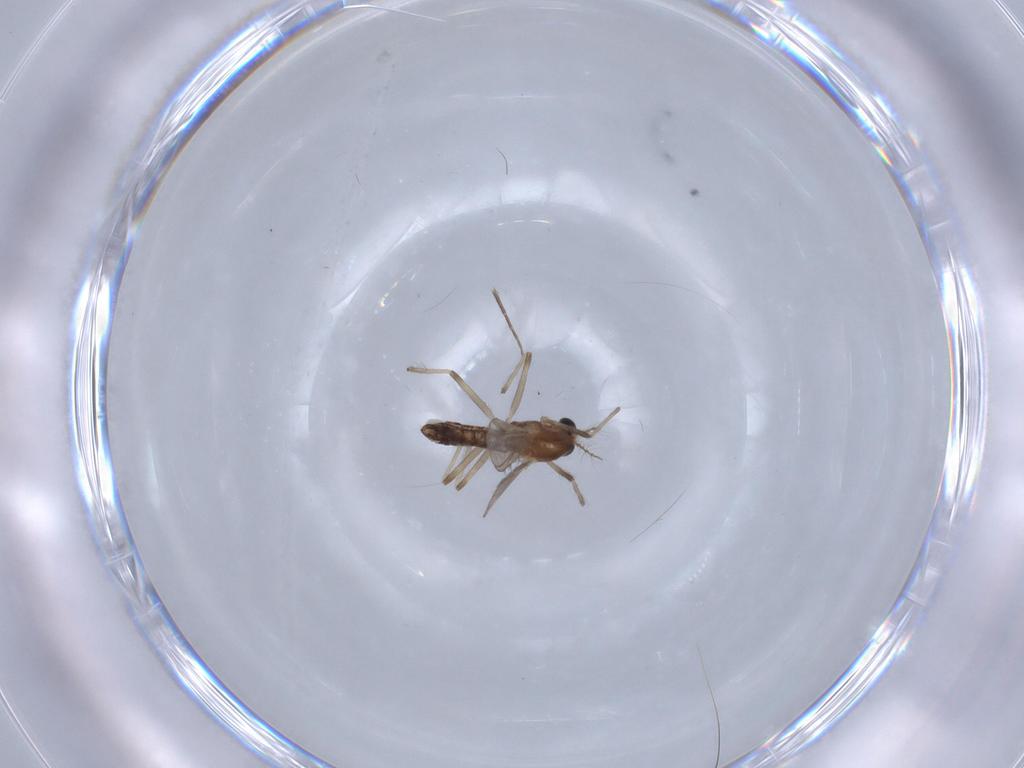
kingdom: Animalia
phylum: Arthropoda
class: Insecta
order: Diptera
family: Chironomidae
